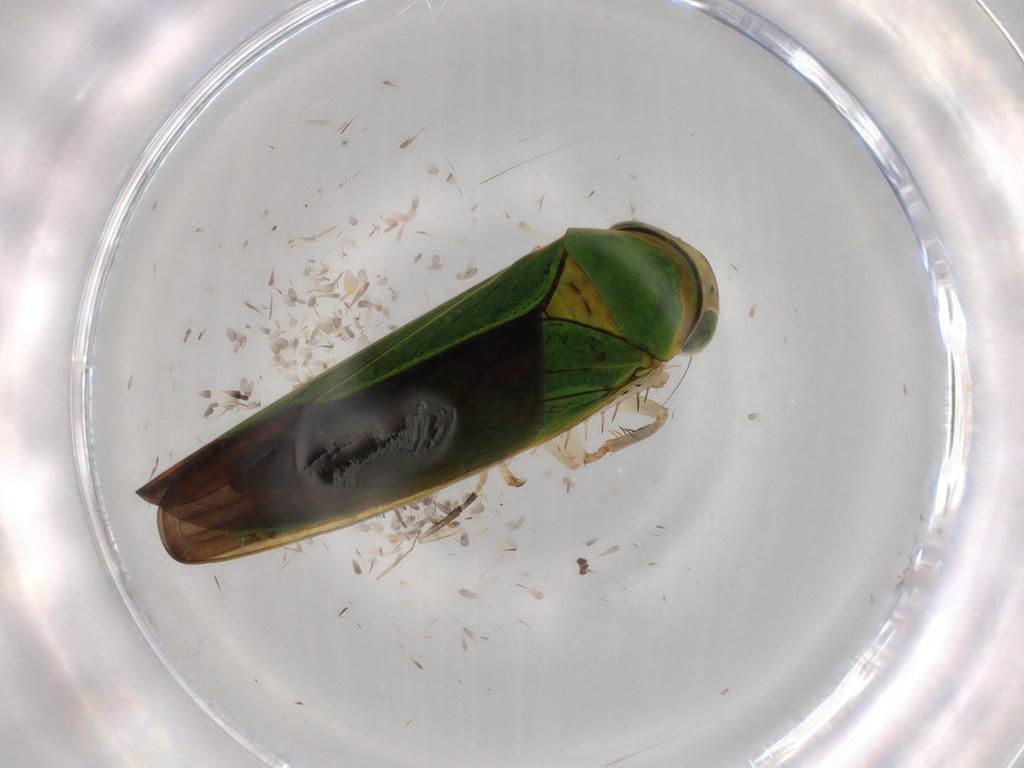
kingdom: Animalia
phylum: Arthropoda
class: Insecta
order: Hemiptera
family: Cicadellidae
